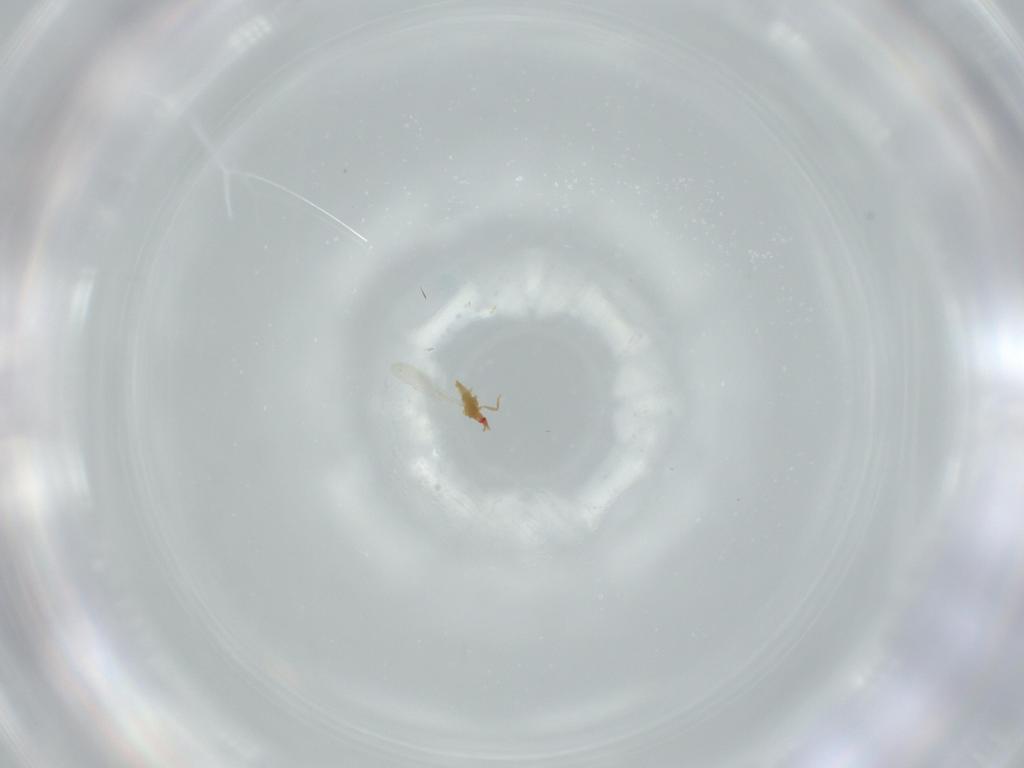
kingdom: Animalia
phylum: Arthropoda
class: Insecta
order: Hemiptera
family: Coccoidea_incertae_sedis
